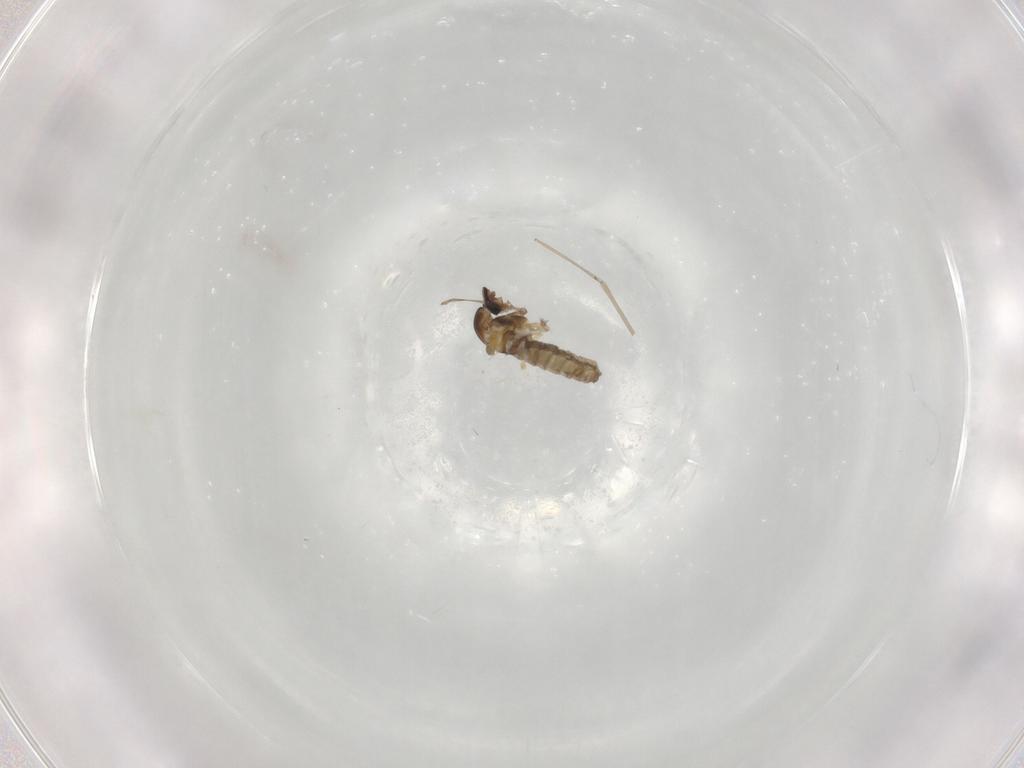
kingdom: Animalia
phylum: Arthropoda
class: Insecta
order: Diptera
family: Cecidomyiidae
